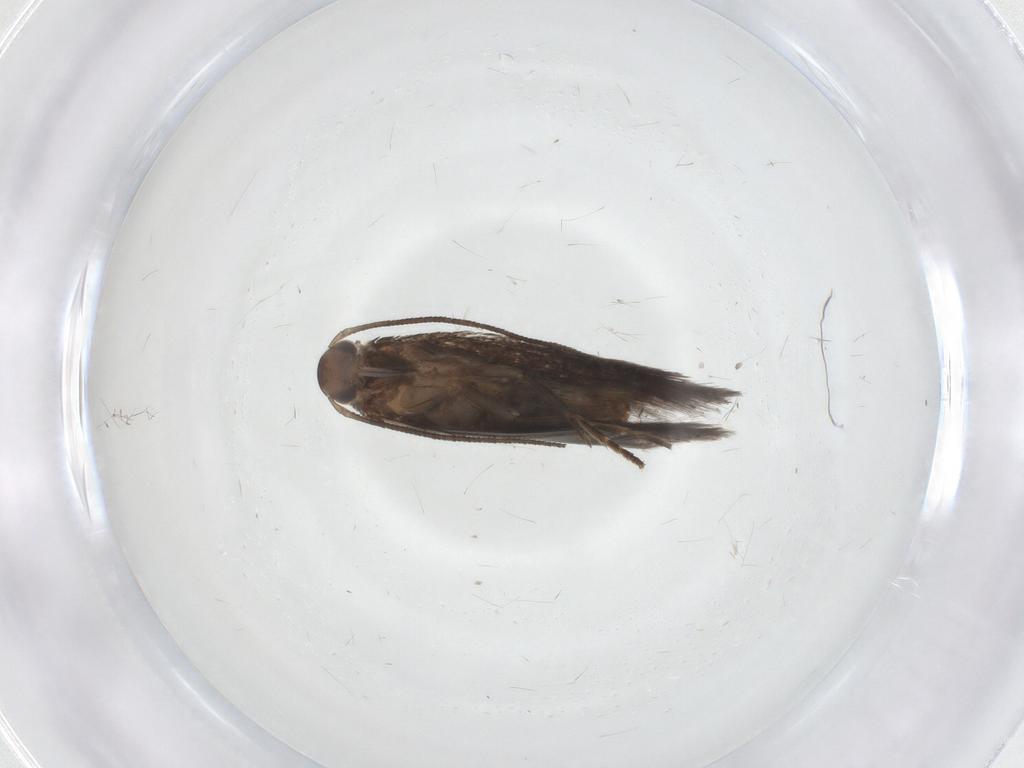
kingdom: Animalia
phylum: Arthropoda
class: Insecta
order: Lepidoptera
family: Elachistidae
